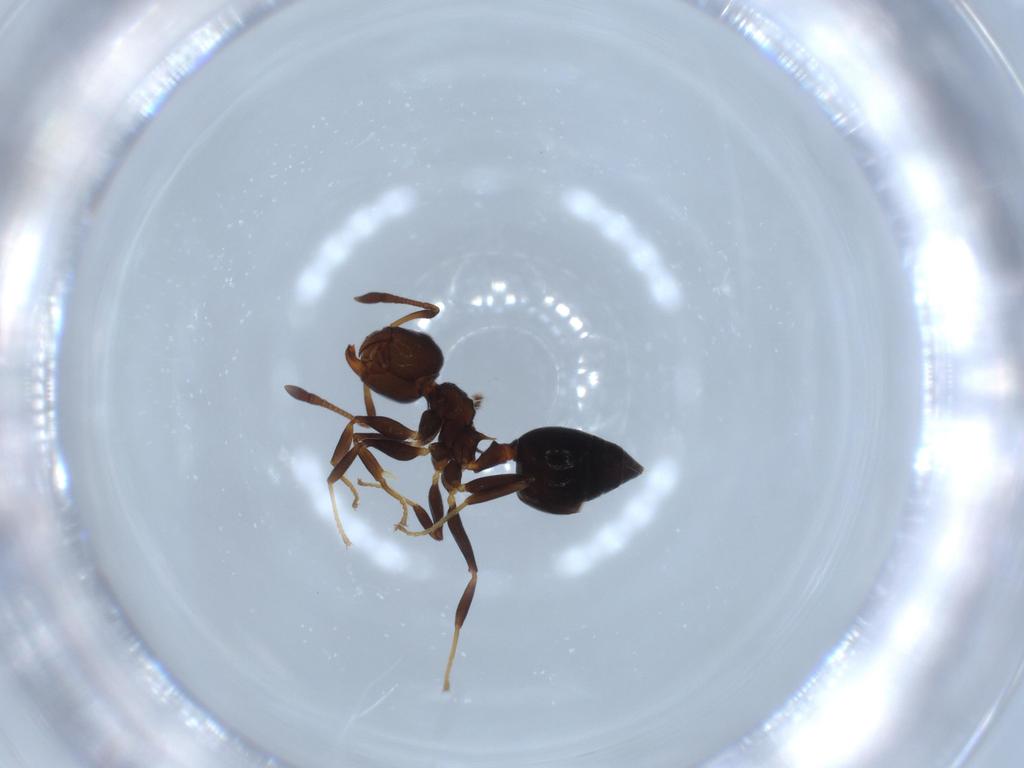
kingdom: Animalia
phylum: Arthropoda
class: Insecta
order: Hymenoptera
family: Formicidae
